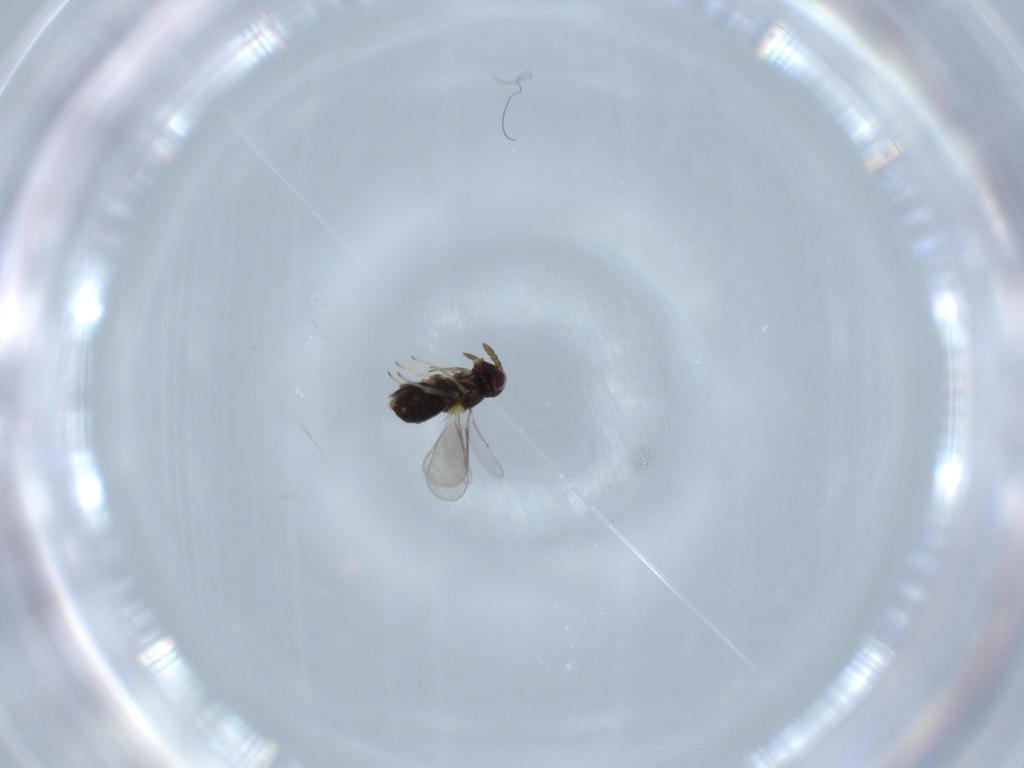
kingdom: Animalia
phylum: Arthropoda
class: Insecta
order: Hymenoptera
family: Aphelinidae
